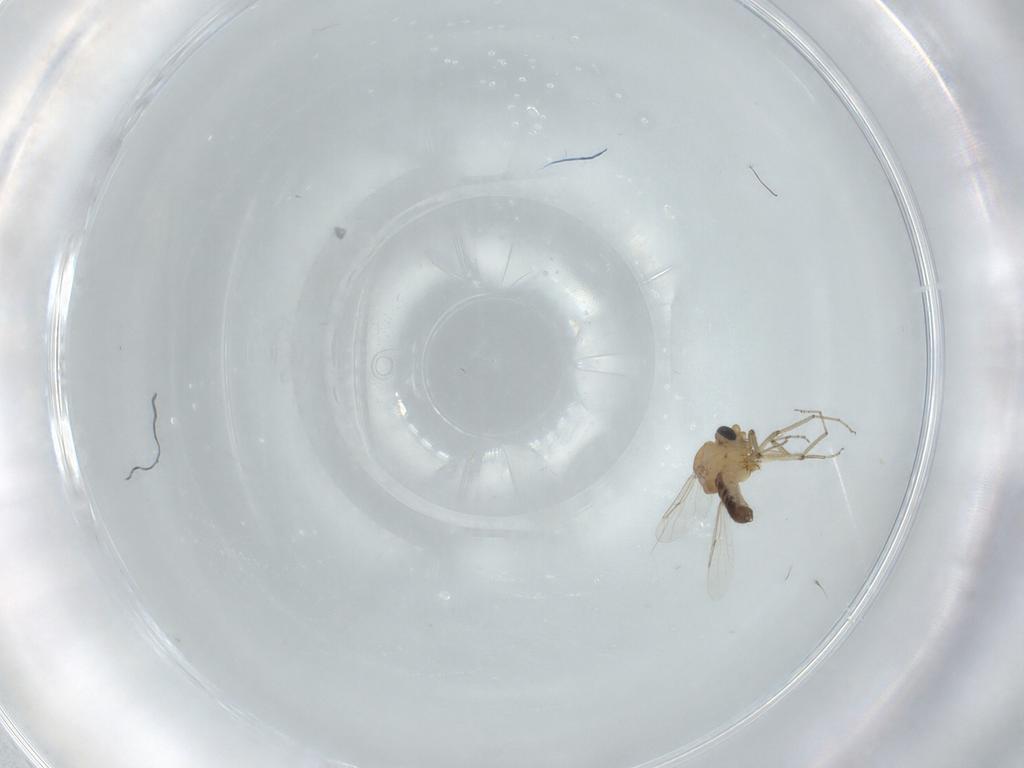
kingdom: Animalia
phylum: Arthropoda
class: Insecta
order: Diptera
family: Ceratopogonidae
